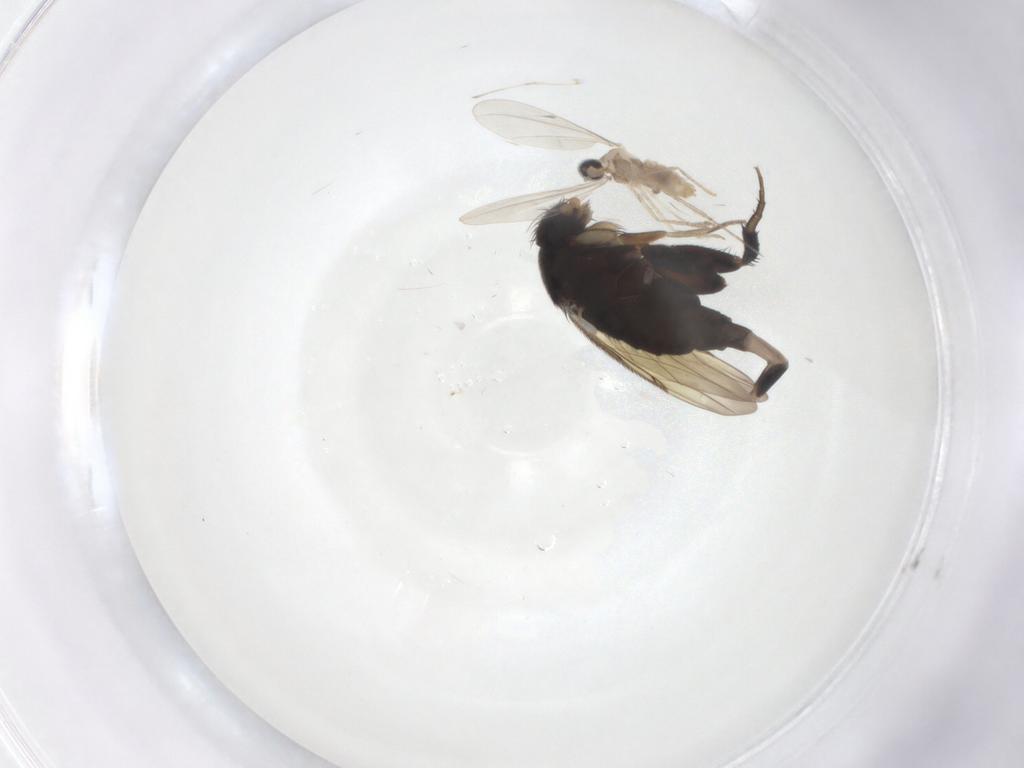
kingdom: Animalia
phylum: Arthropoda
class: Insecta
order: Diptera
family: Phoridae
